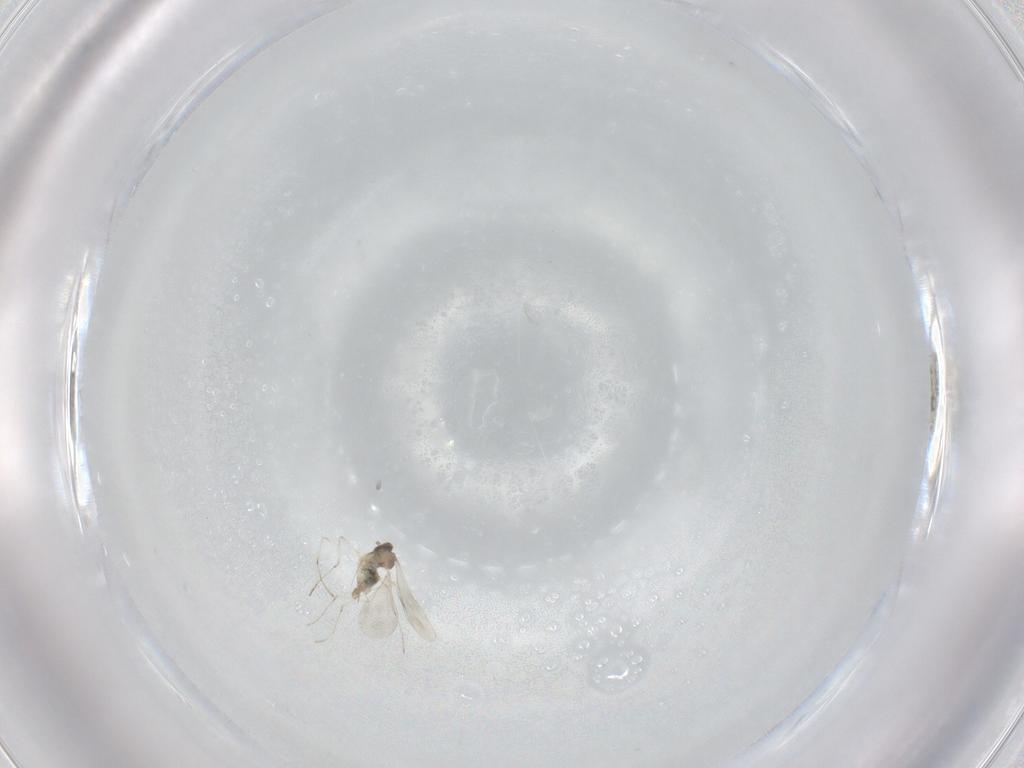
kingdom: Animalia
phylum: Arthropoda
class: Insecta
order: Diptera
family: Cecidomyiidae
